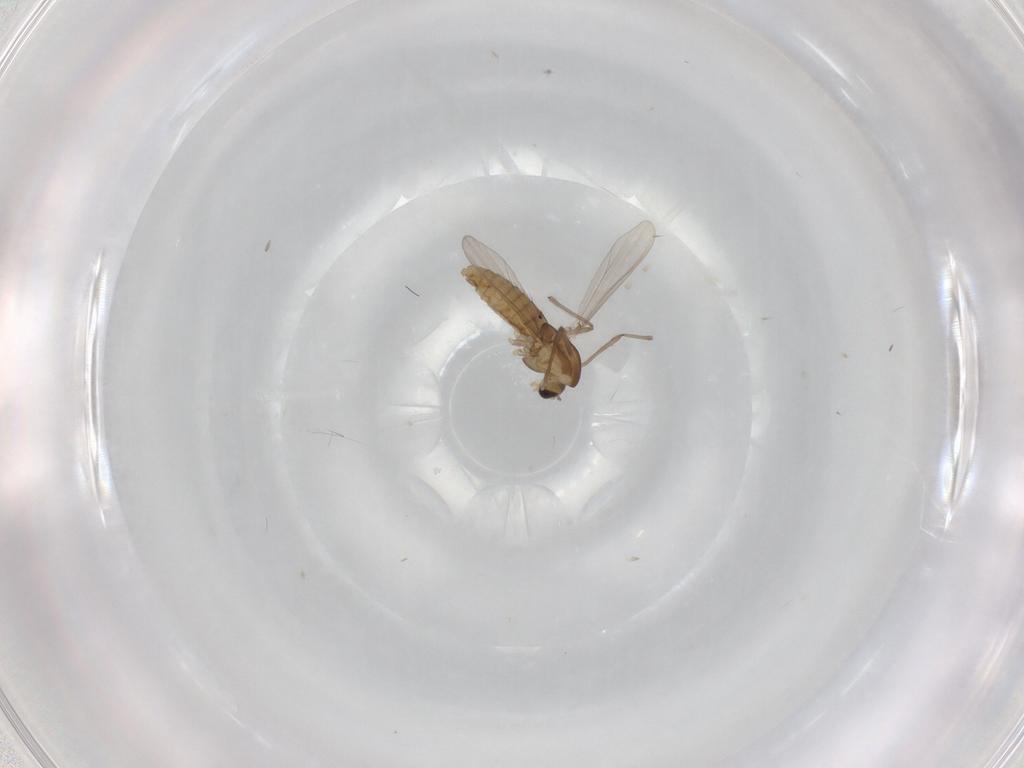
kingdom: Animalia
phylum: Arthropoda
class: Insecta
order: Diptera
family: Chironomidae
